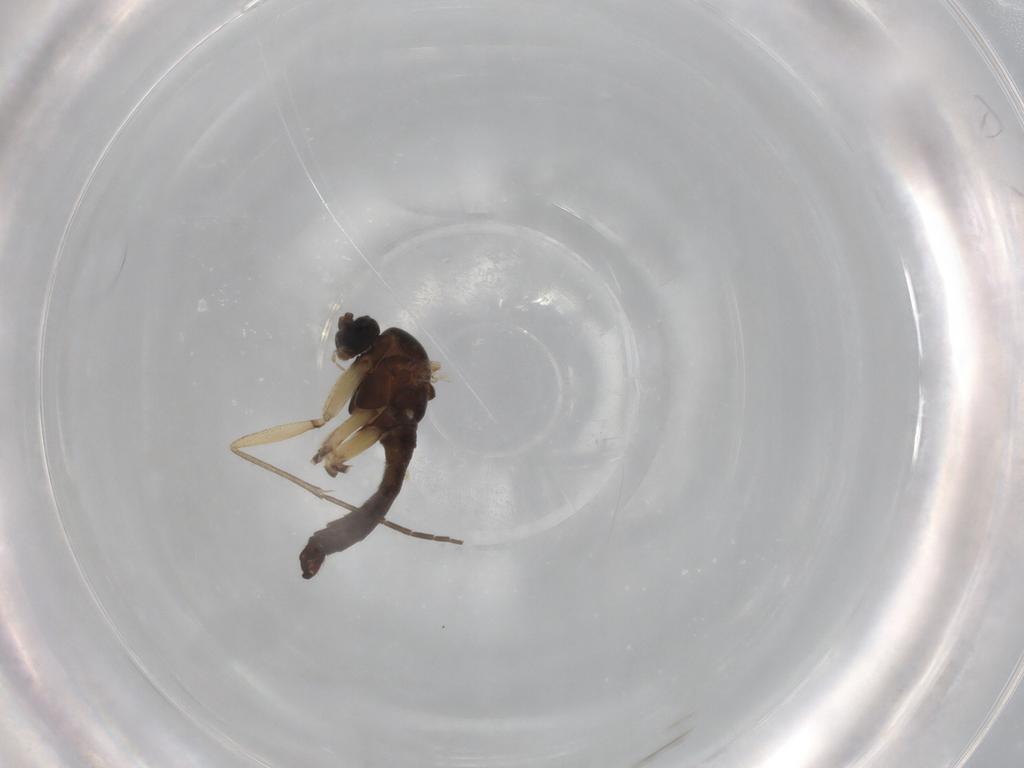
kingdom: Animalia
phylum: Arthropoda
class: Insecta
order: Diptera
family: Sciaridae
